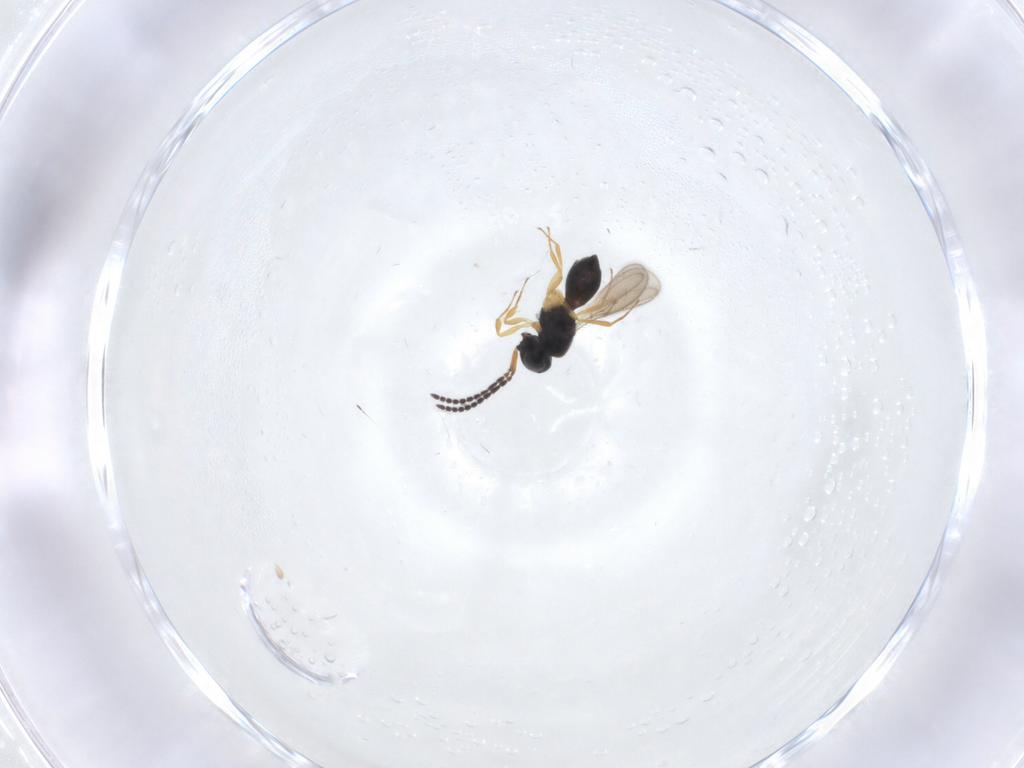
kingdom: Animalia
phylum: Arthropoda
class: Insecta
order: Hymenoptera
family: Scelionidae
